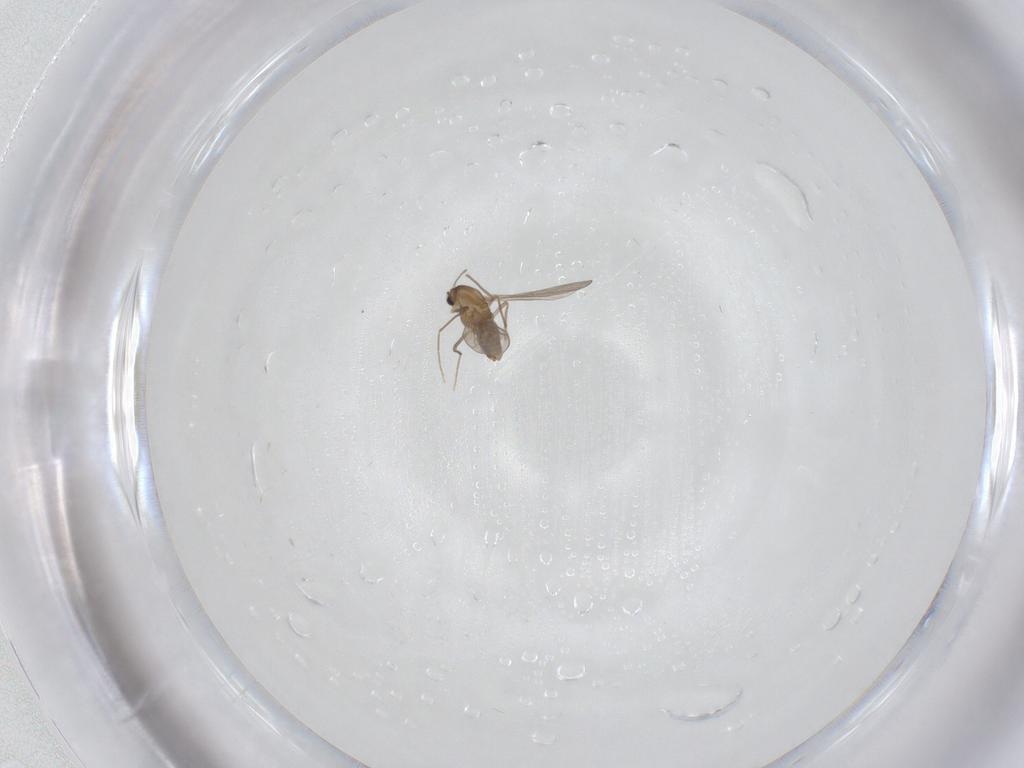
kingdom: Animalia
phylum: Arthropoda
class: Insecta
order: Diptera
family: Chironomidae
